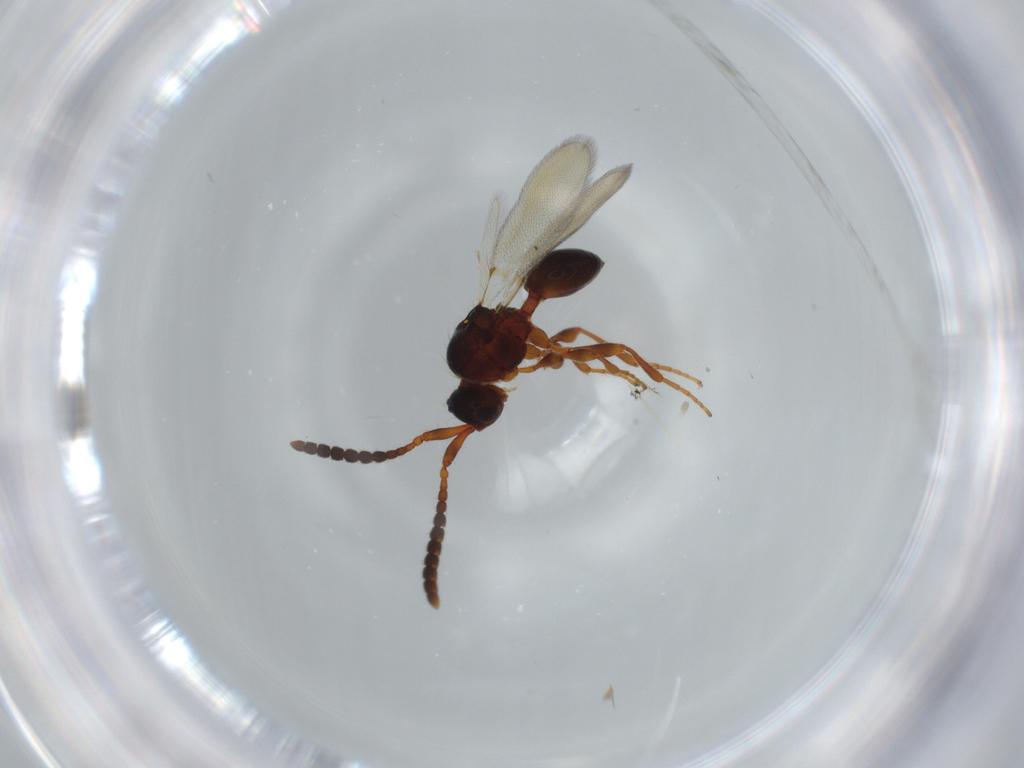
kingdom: Animalia
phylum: Arthropoda
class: Insecta
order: Hymenoptera
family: Diapriidae
